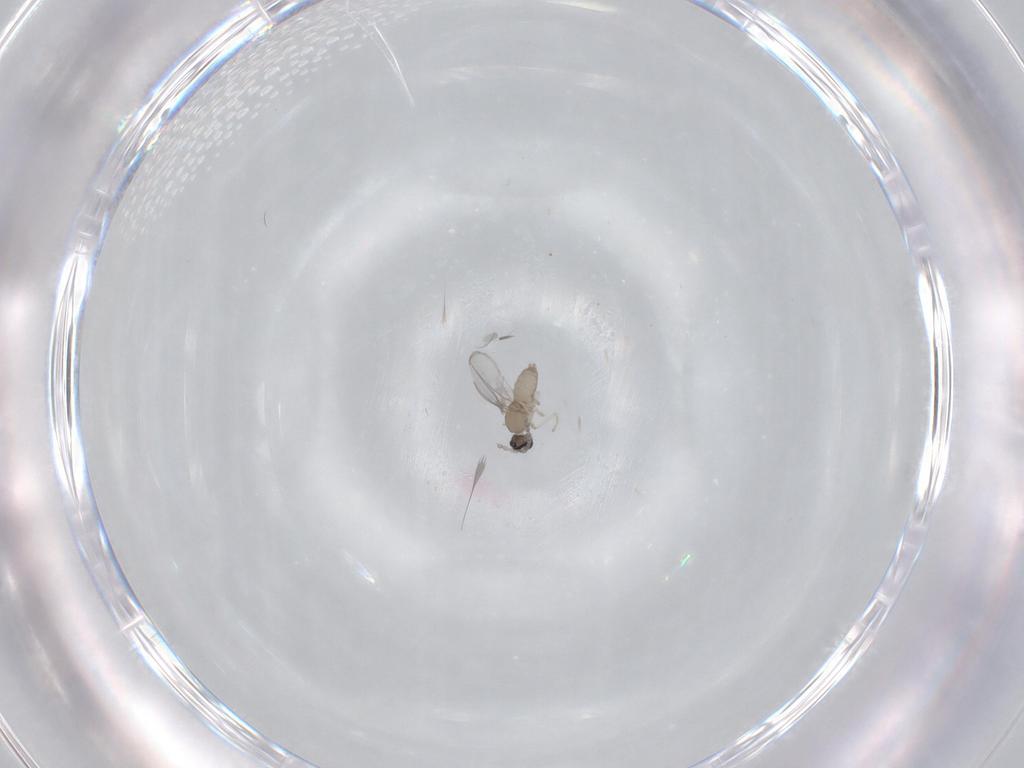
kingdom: Animalia
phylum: Arthropoda
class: Insecta
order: Diptera
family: Cecidomyiidae
